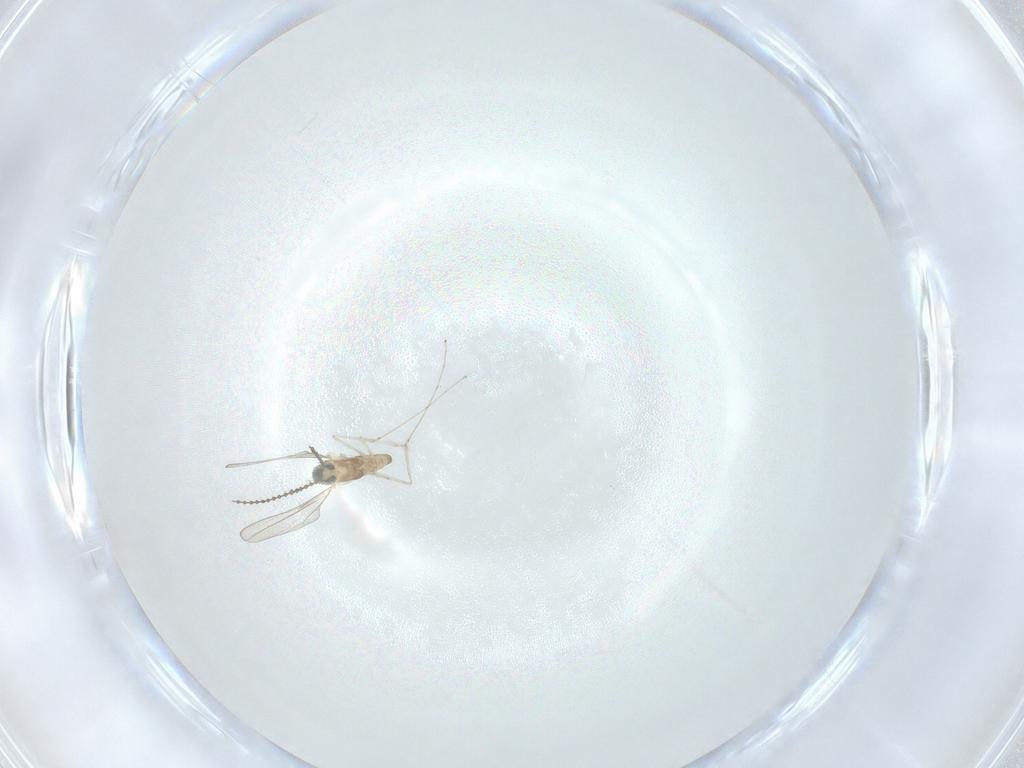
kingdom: Animalia
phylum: Arthropoda
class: Insecta
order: Diptera
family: Cecidomyiidae
